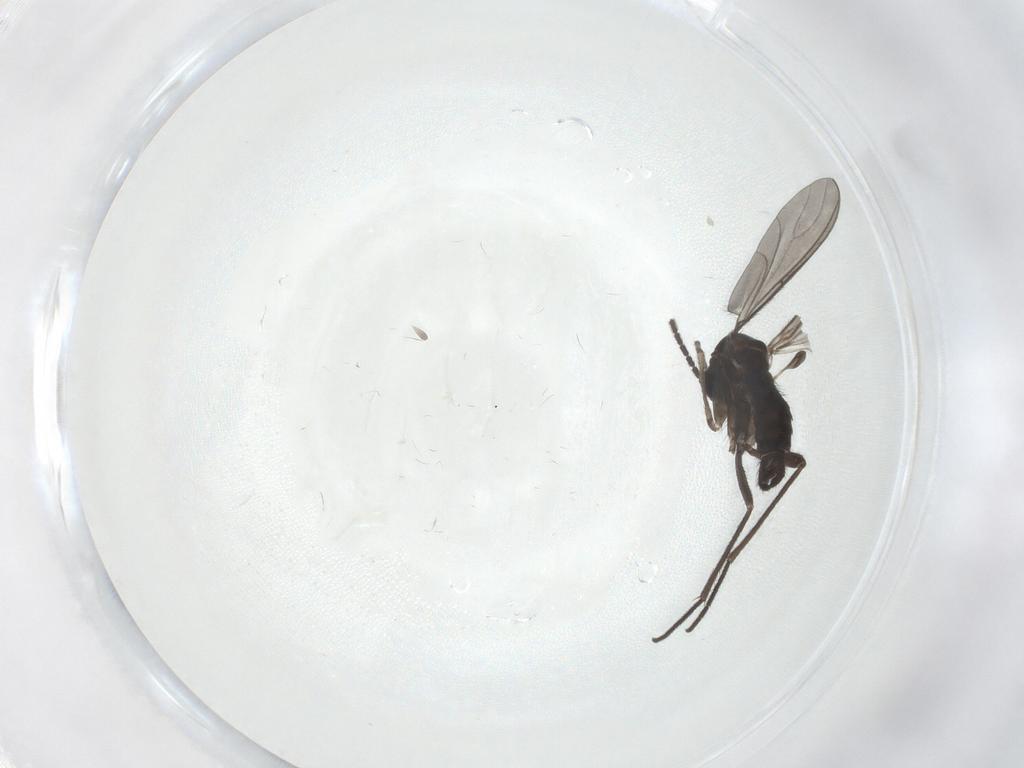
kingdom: Animalia
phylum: Arthropoda
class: Insecta
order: Diptera
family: Sciaridae
